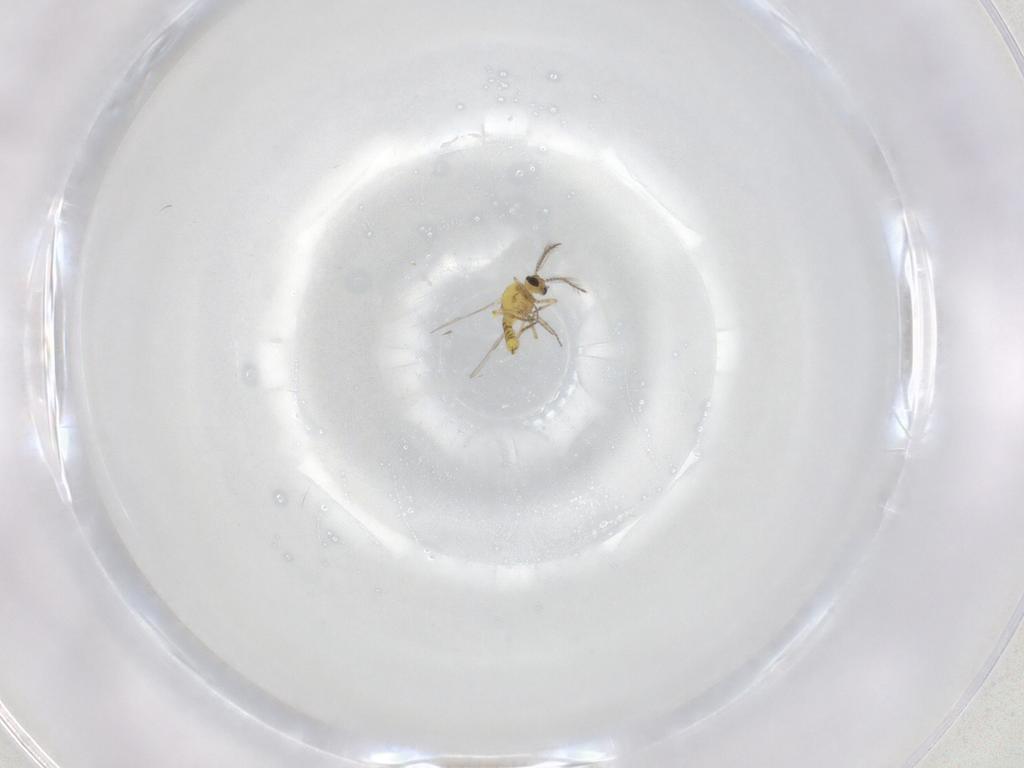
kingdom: Animalia
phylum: Arthropoda
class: Insecta
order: Diptera
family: Ceratopogonidae
